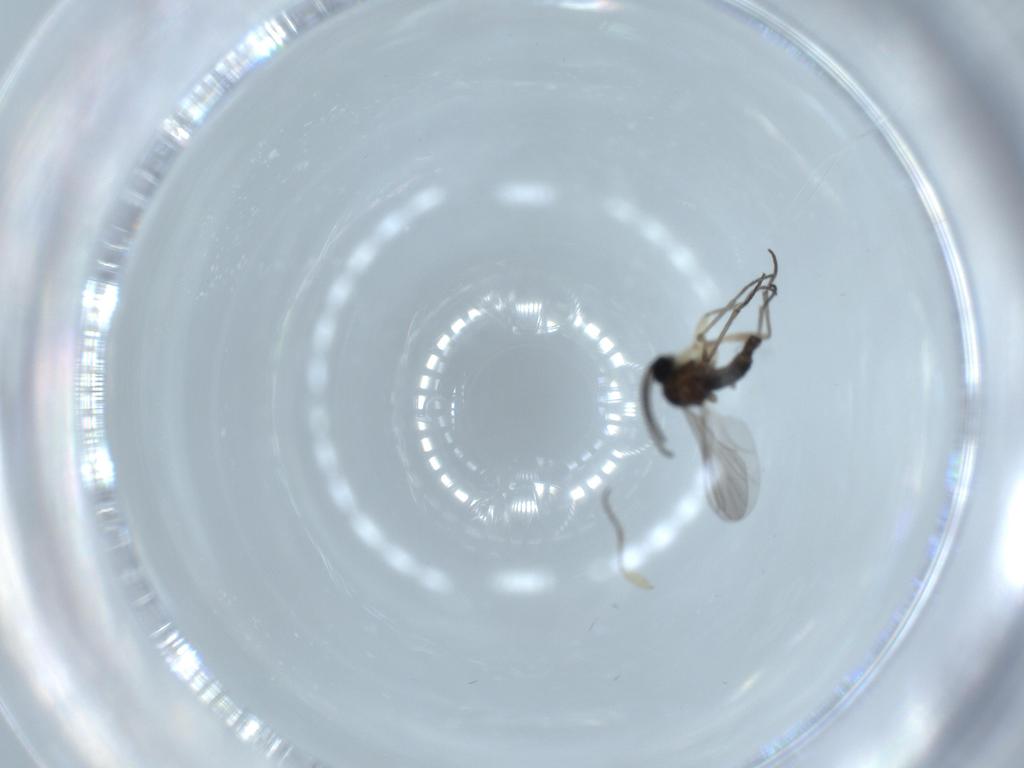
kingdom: Animalia
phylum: Arthropoda
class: Insecta
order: Diptera
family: Sciaridae
